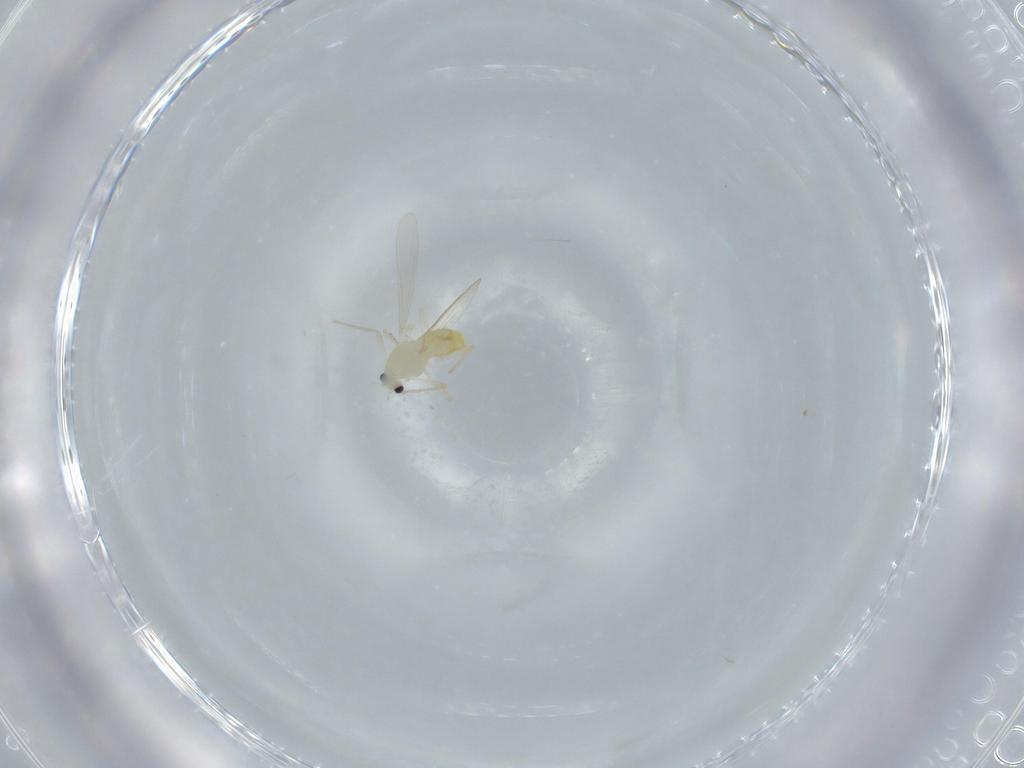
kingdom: Animalia
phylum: Arthropoda
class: Insecta
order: Diptera
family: Chironomidae
